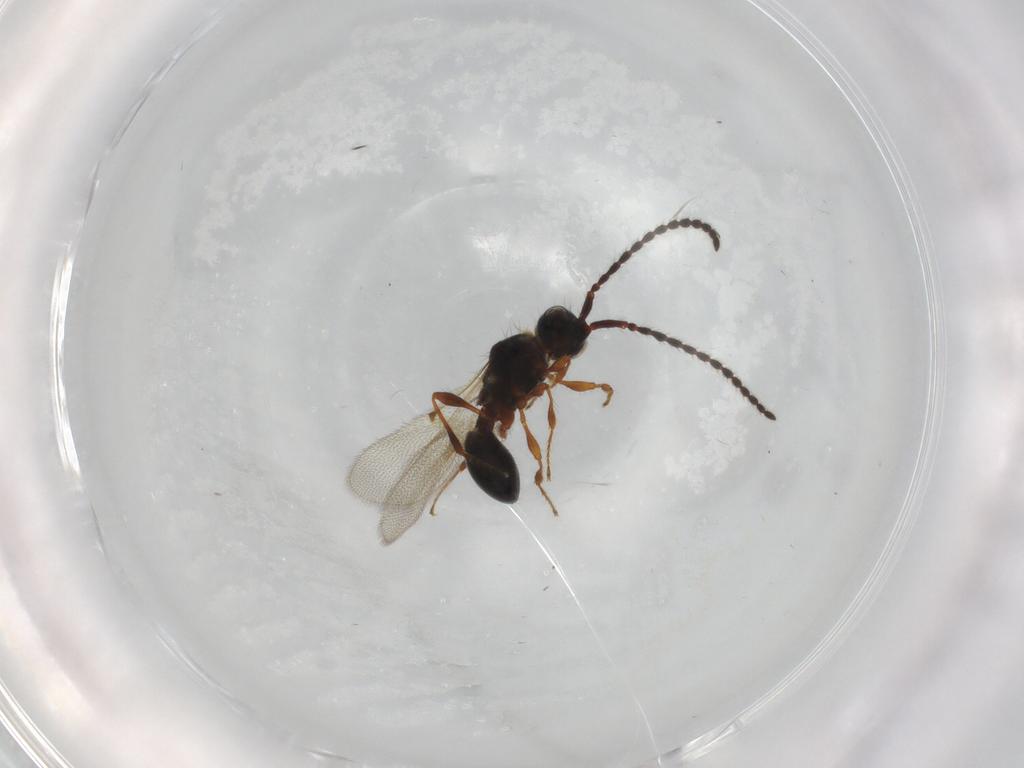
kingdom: Animalia
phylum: Arthropoda
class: Insecta
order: Hymenoptera
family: Diapriidae
